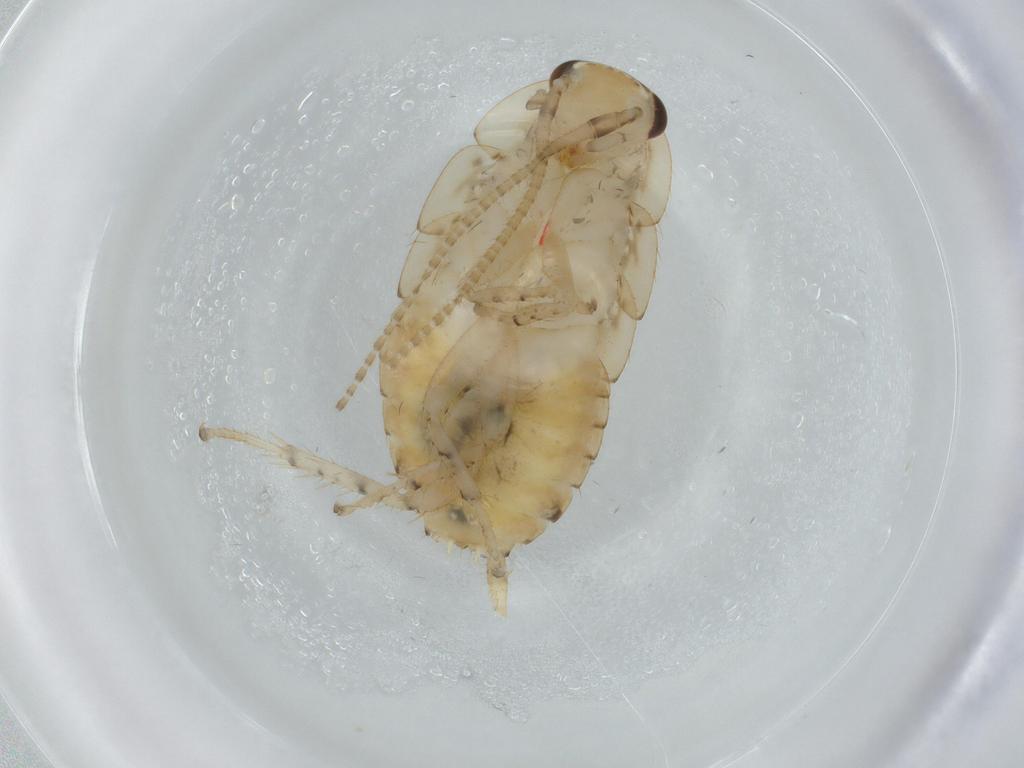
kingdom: Animalia
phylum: Arthropoda
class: Insecta
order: Blattodea
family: Ectobiidae
